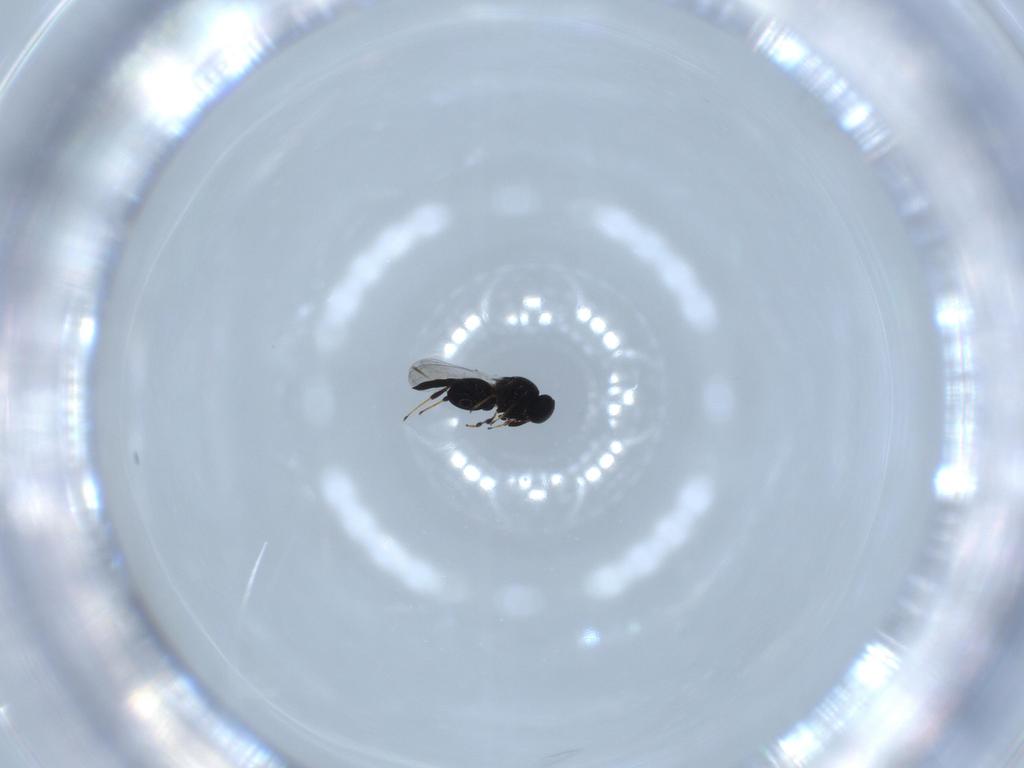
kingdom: Animalia
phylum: Arthropoda
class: Insecta
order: Hymenoptera
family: Platygastridae
